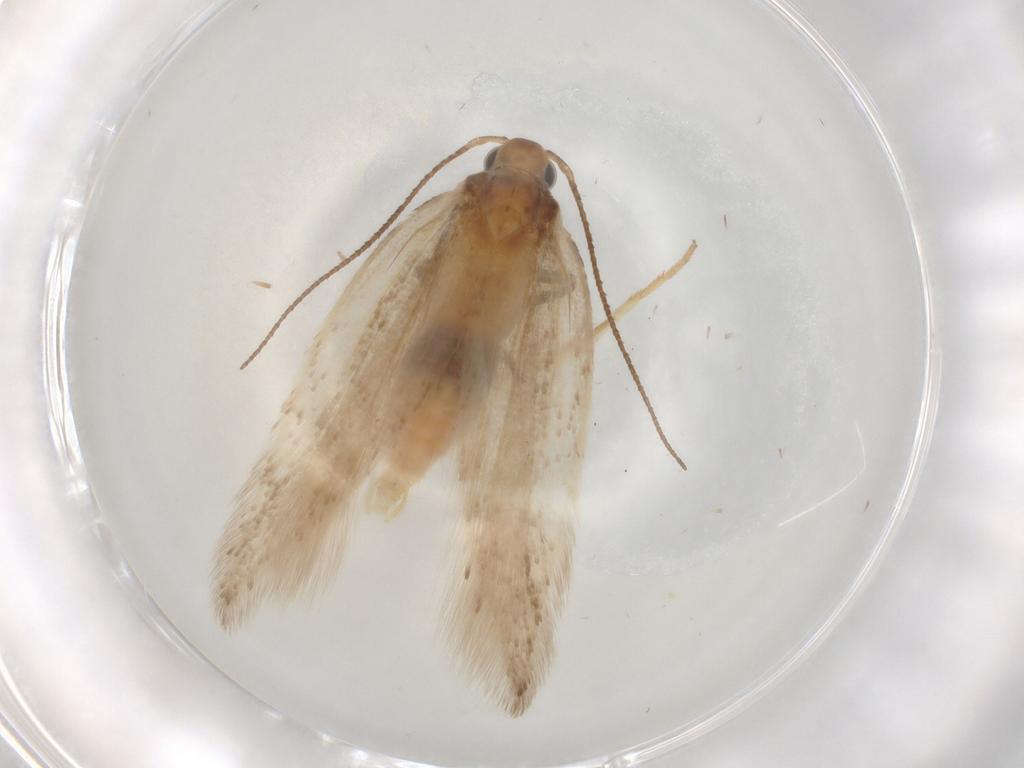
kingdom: Animalia
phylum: Arthropoda
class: Insecta
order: Lepidoptera
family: Gelechiidae
